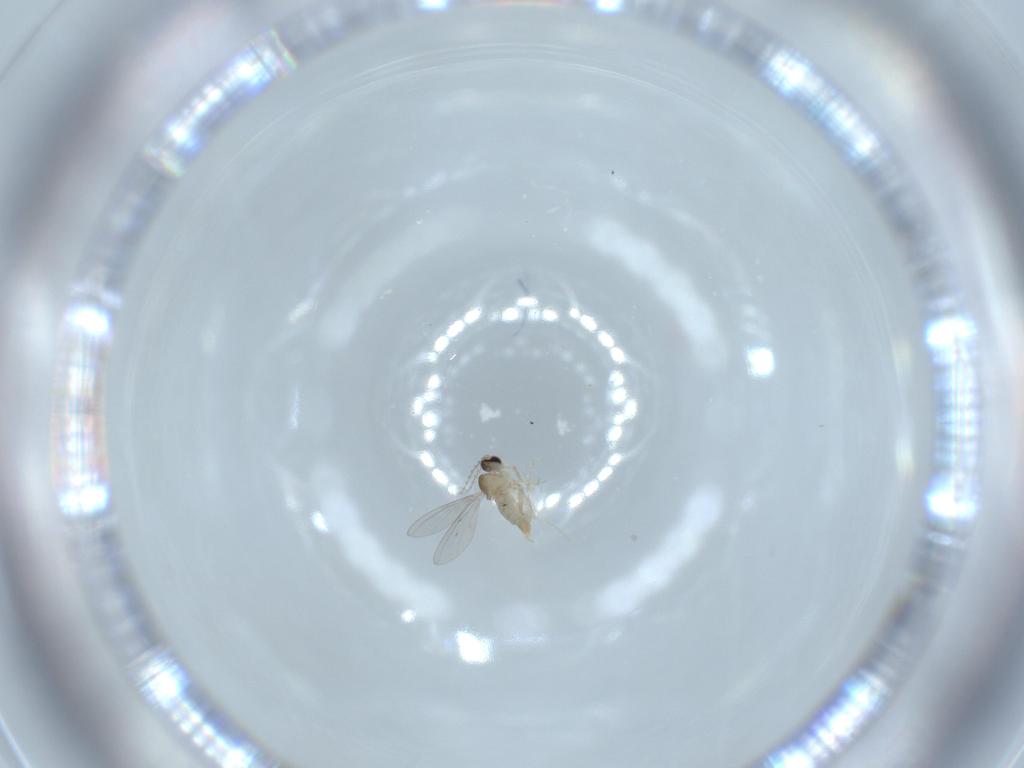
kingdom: Animalia
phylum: Arthropoda
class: Insecta
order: Diptera
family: Cecidomyiidae
